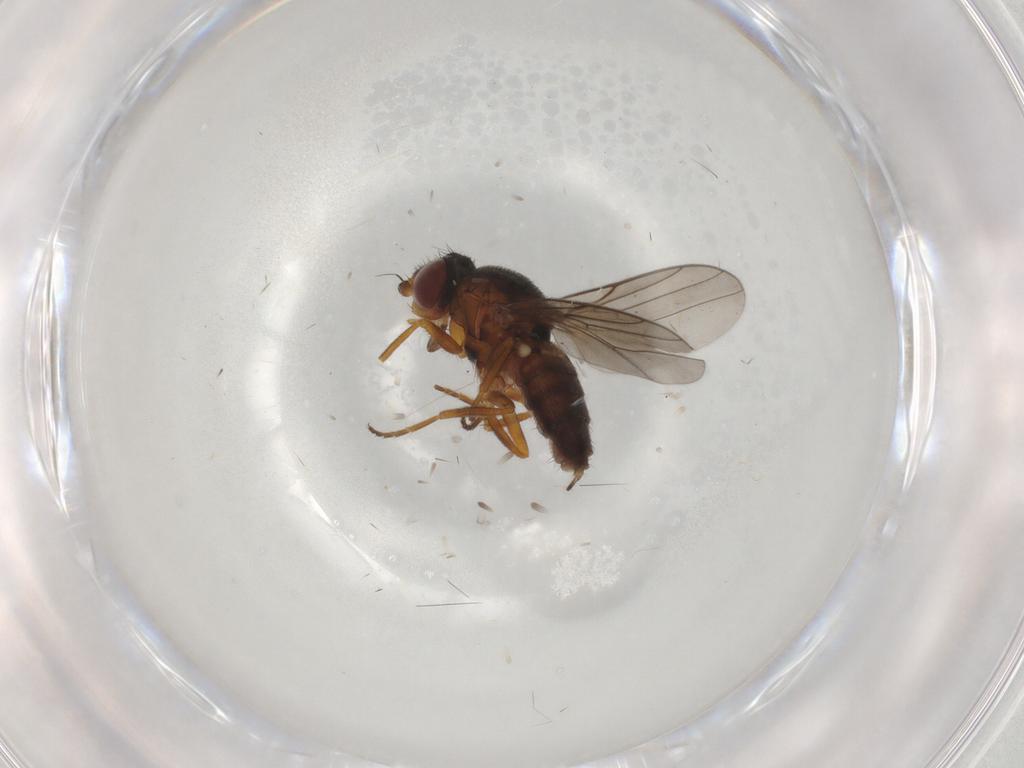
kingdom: Animalia
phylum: Arthropoda
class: Insecta
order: Diptera
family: Chloropidae
